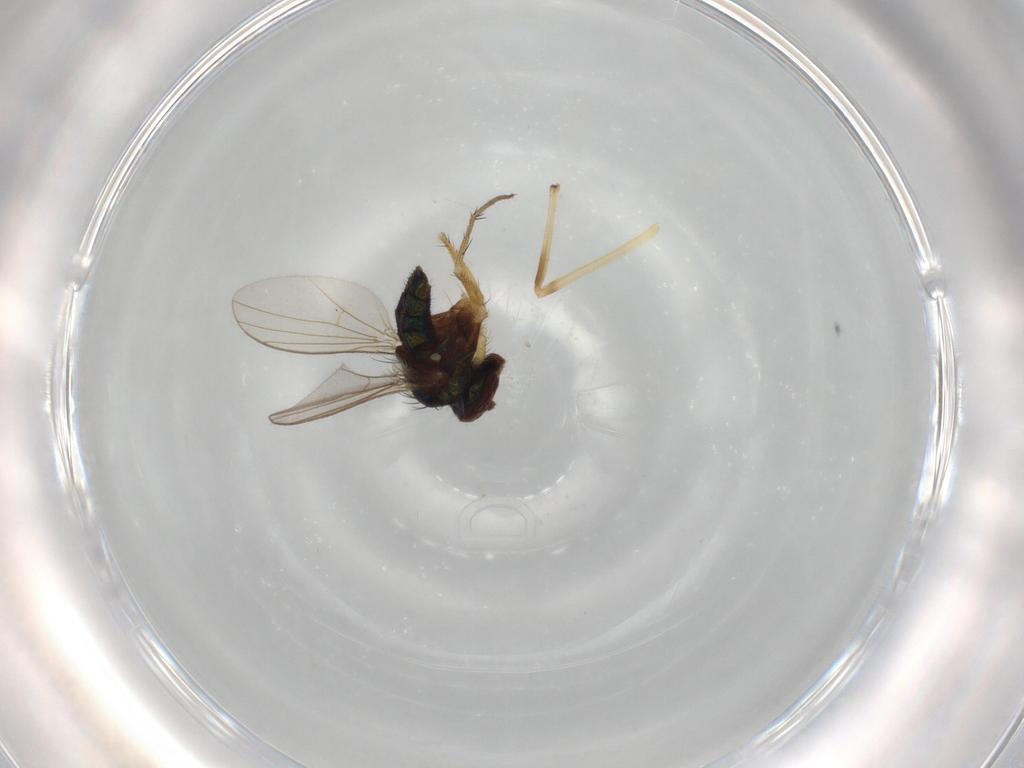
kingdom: Animalia
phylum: Arthropoda
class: Insecta
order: Diptera
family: Chironomidae
